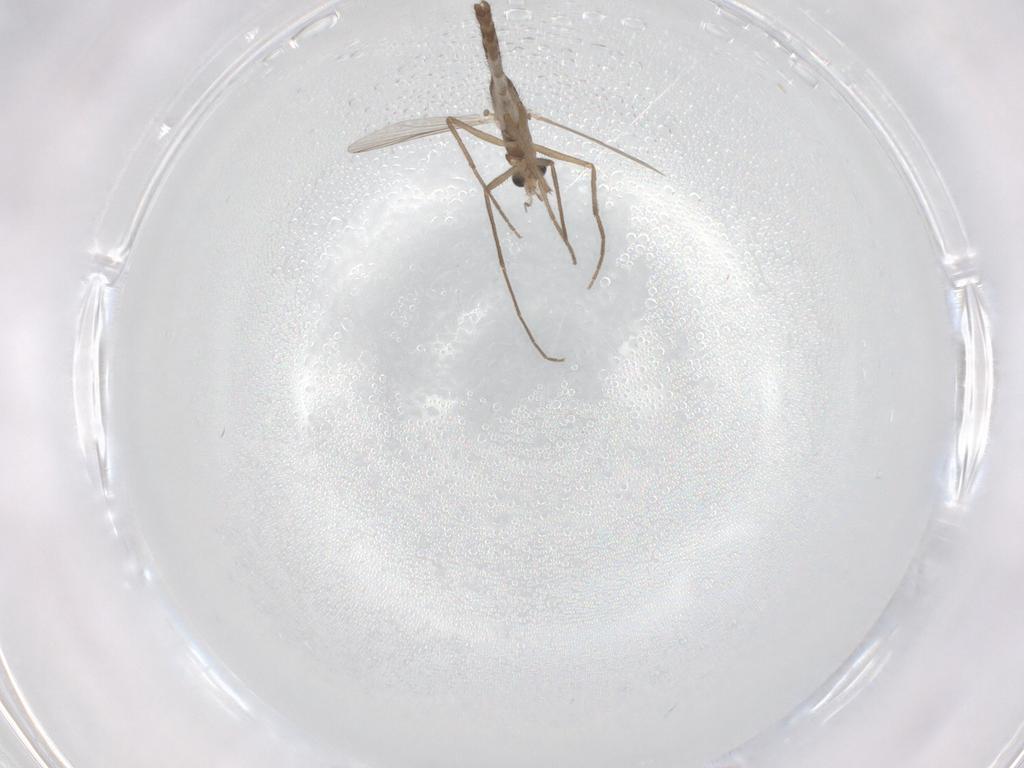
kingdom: Animalia
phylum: Arthropoda
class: Insecta
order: Diptera
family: Chironomidae
